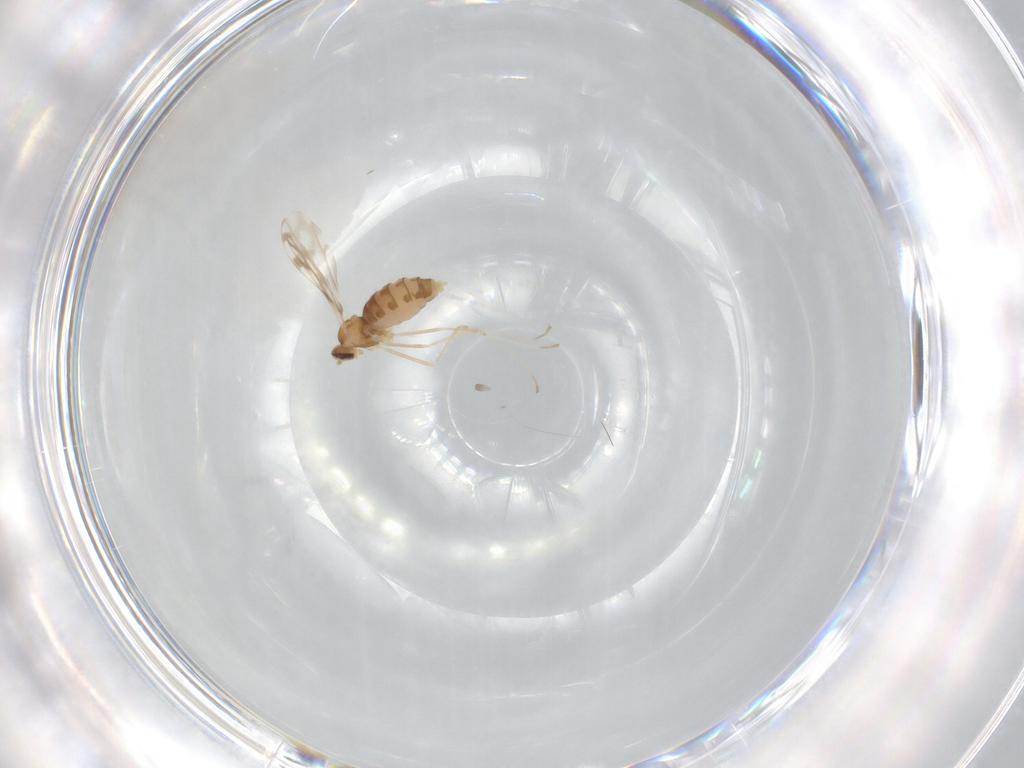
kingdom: Animalia
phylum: Arthropoda
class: Insecta
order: Diptera
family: Cecidomyiidae
